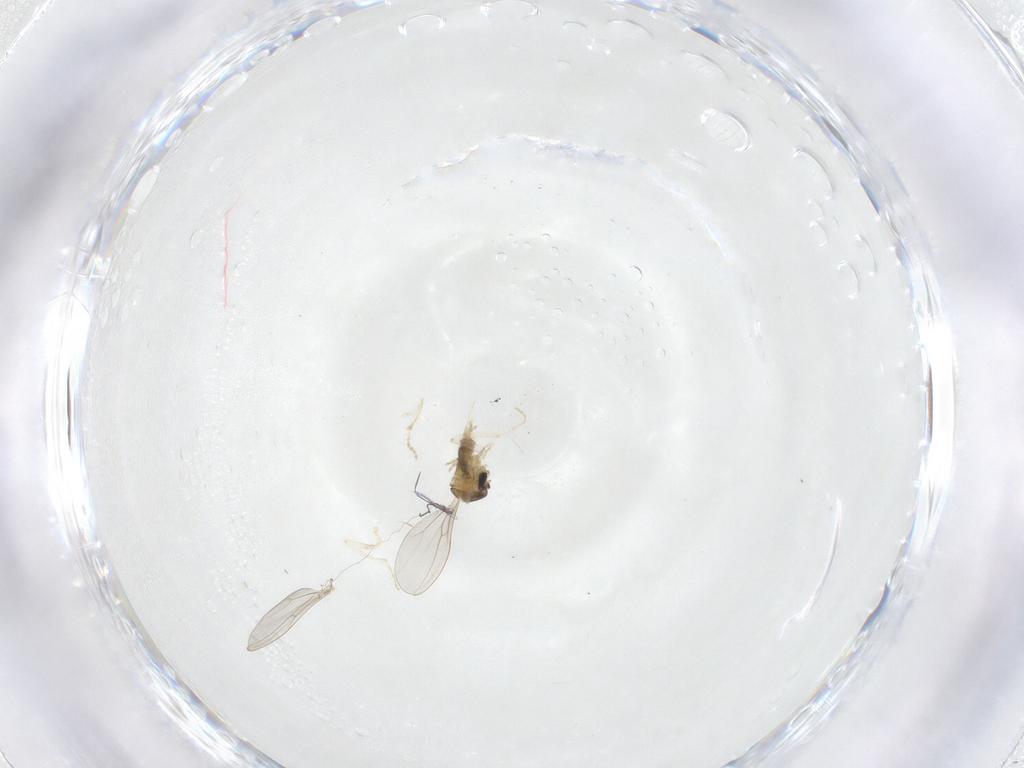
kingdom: Animalia
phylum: Arthropoda
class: Insecta
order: Diptera
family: Cecidomyiidae
